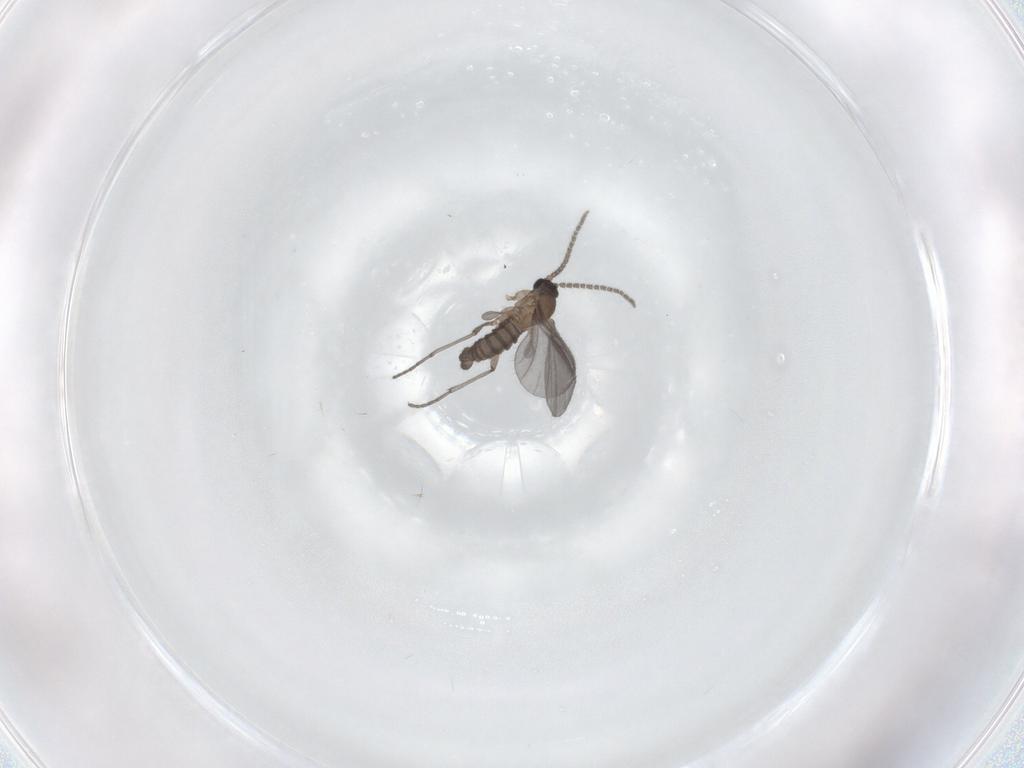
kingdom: Animalia
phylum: Arthropoda
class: Insecta
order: Diptera
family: Sciaridae
